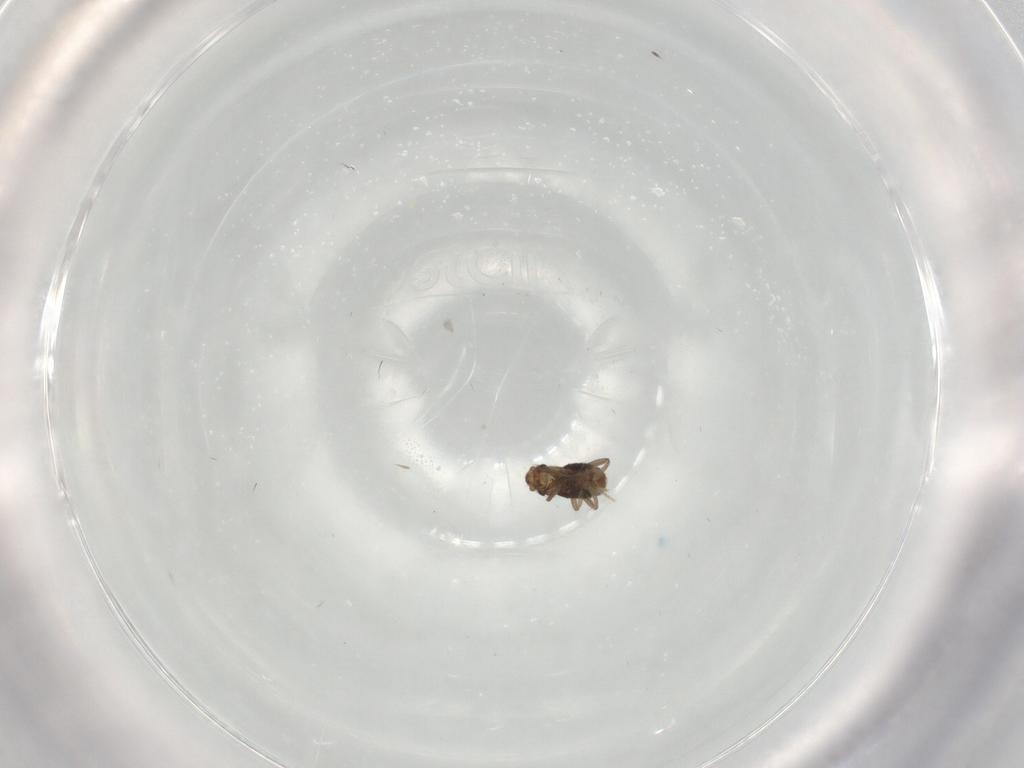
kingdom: Animalia
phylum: Arthropoda
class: Insecta
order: Diptera
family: Phoridae
